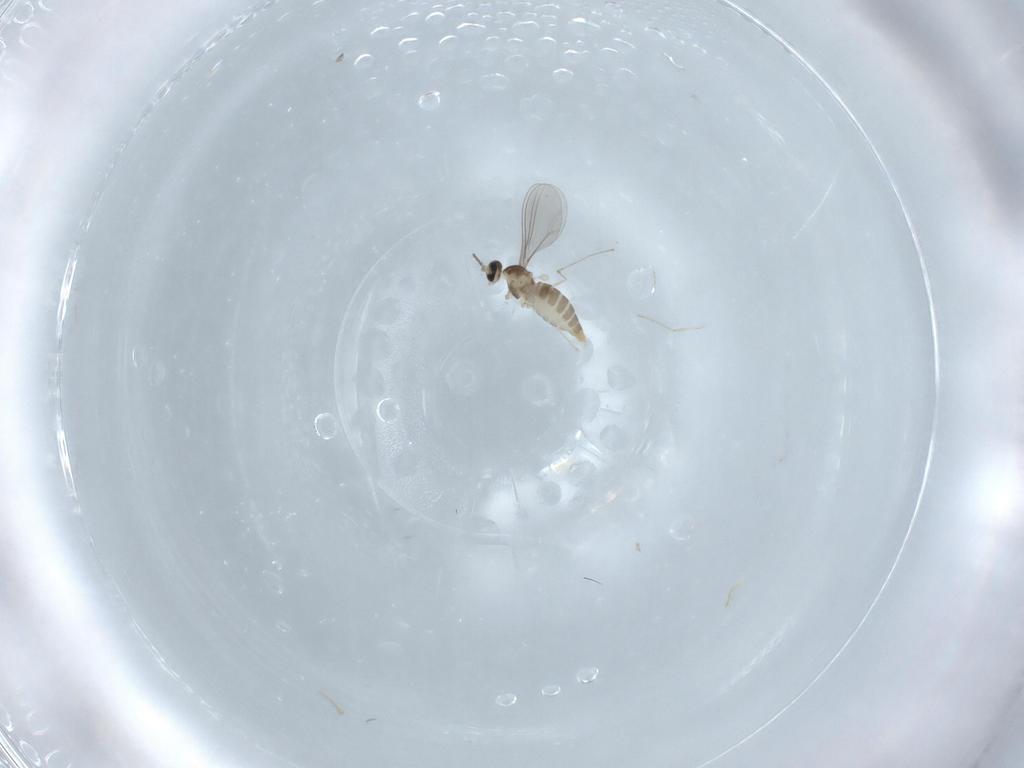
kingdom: Animalia
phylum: Arthropoda
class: Insecta
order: Diptera
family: Cecidomyiidae
